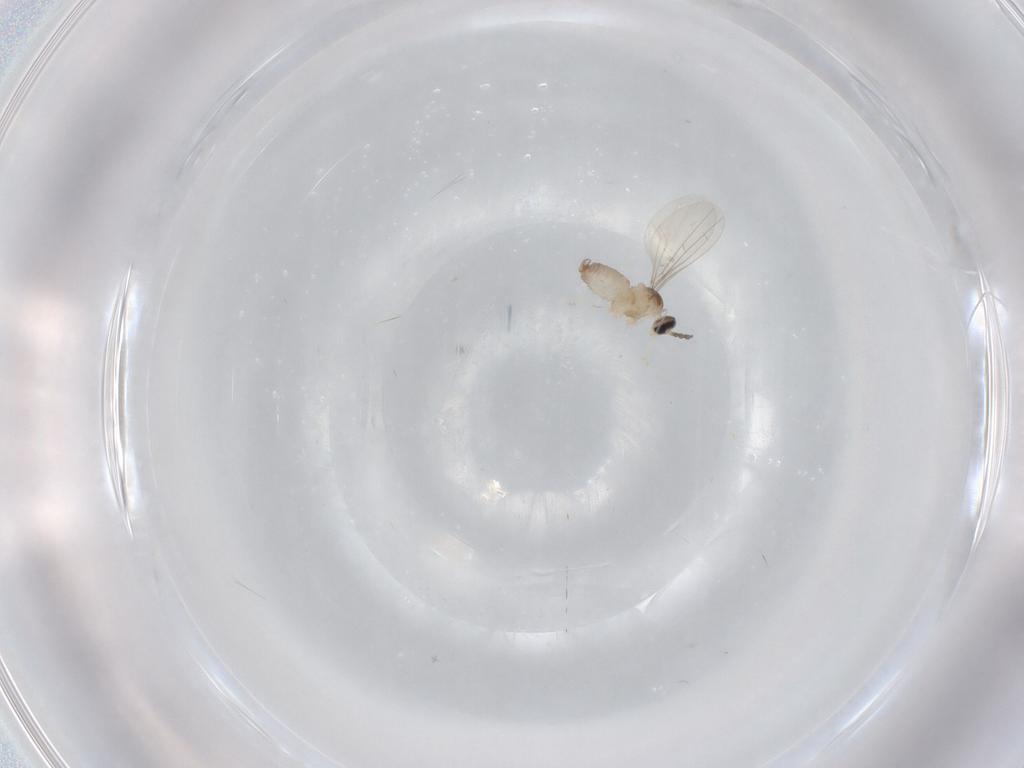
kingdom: Animalia
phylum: Arthropoda
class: Insecta
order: Diptera
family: Psychodidae
